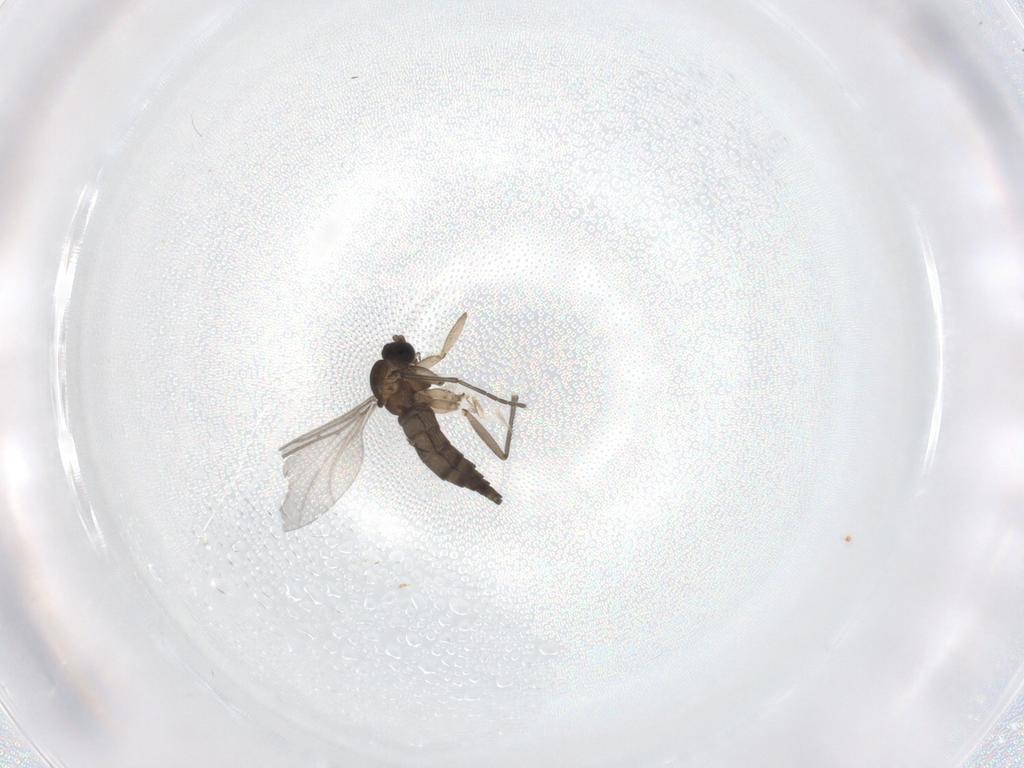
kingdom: Animalia
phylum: Arthropoda
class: Insecta
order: Diptera
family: Sciaridae
